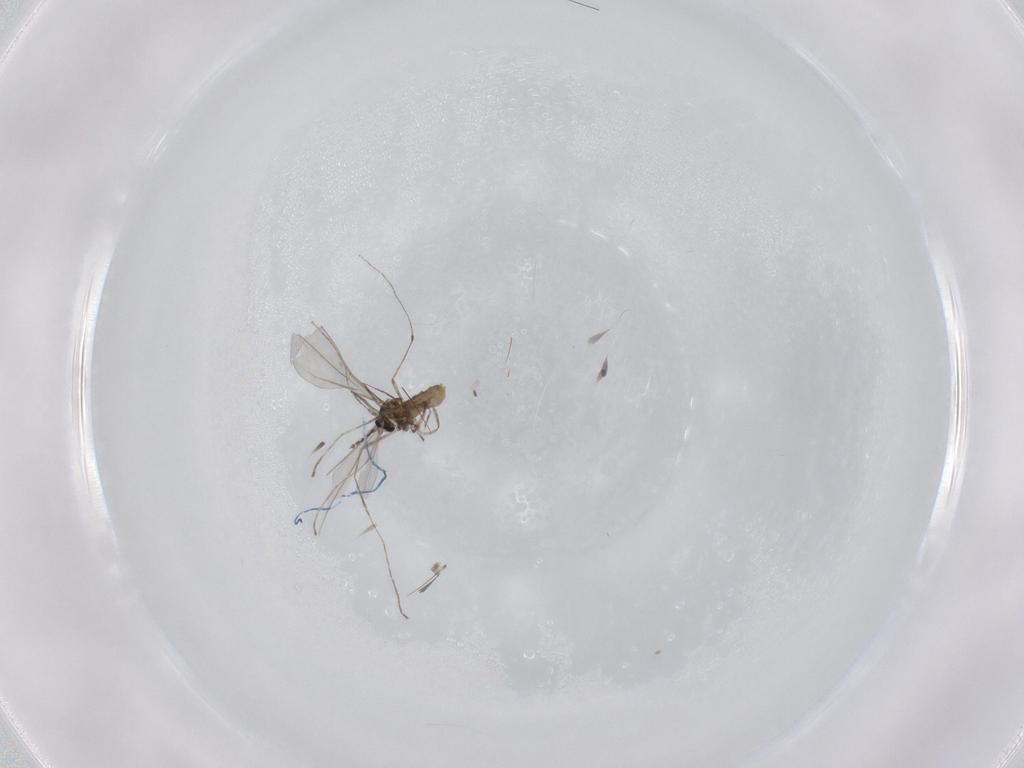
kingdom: Animalia
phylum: Arthropoda
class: Insecta
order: Diptera
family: Cecidomyiidae
